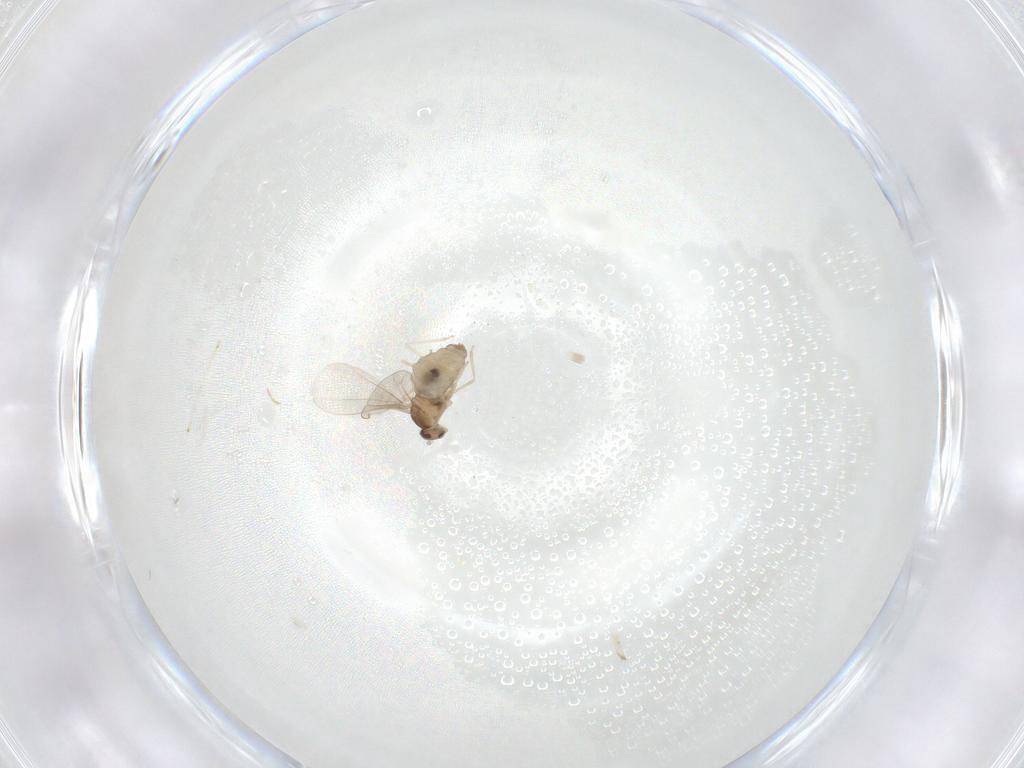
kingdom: Animalia
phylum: Arthropoda
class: Insecta
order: Diptera
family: Cecidomyiidae
